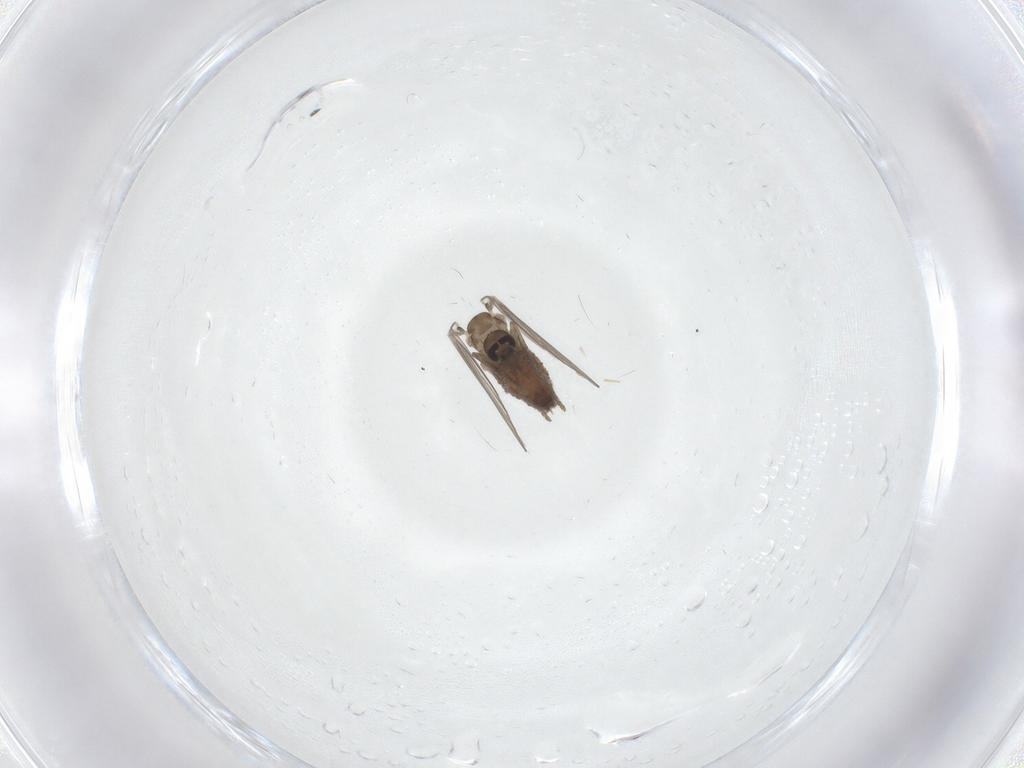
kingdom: Animalia
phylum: Arthropoda
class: Insecta
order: Diptera
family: Psychodidae
